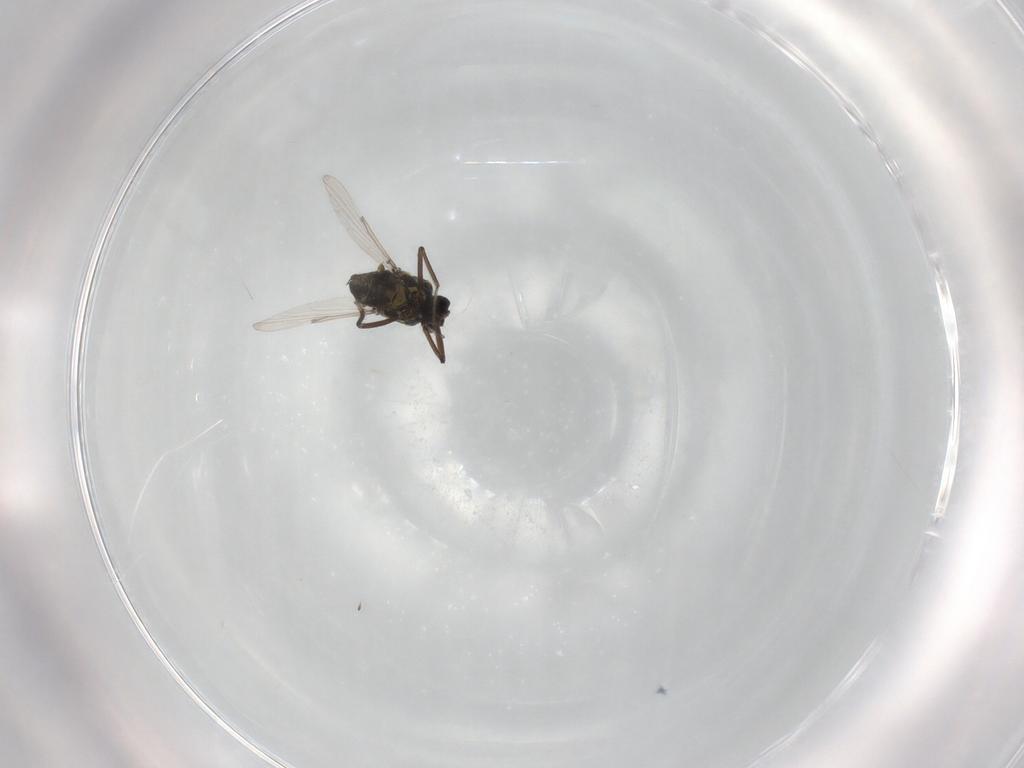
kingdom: Animalia
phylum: Arthropoda
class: Insecta
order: Diptera
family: Ceratopogonidae
